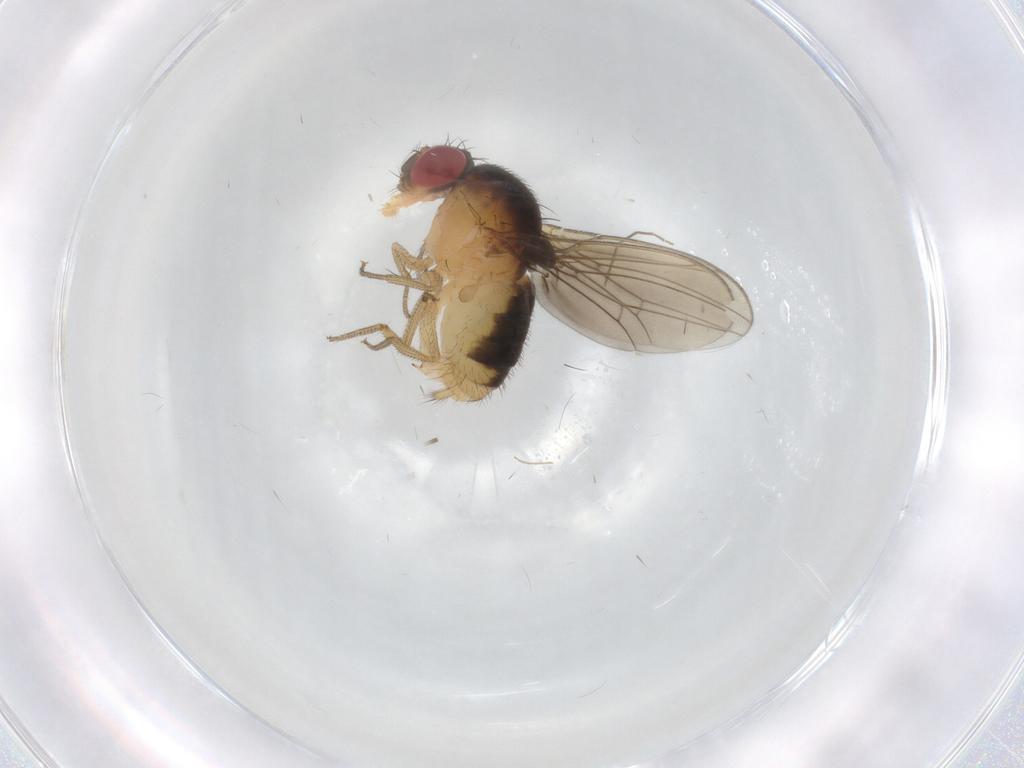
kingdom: Animalia
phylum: Arthropoda
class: Insecta
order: Diptera
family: Drosophilidae
